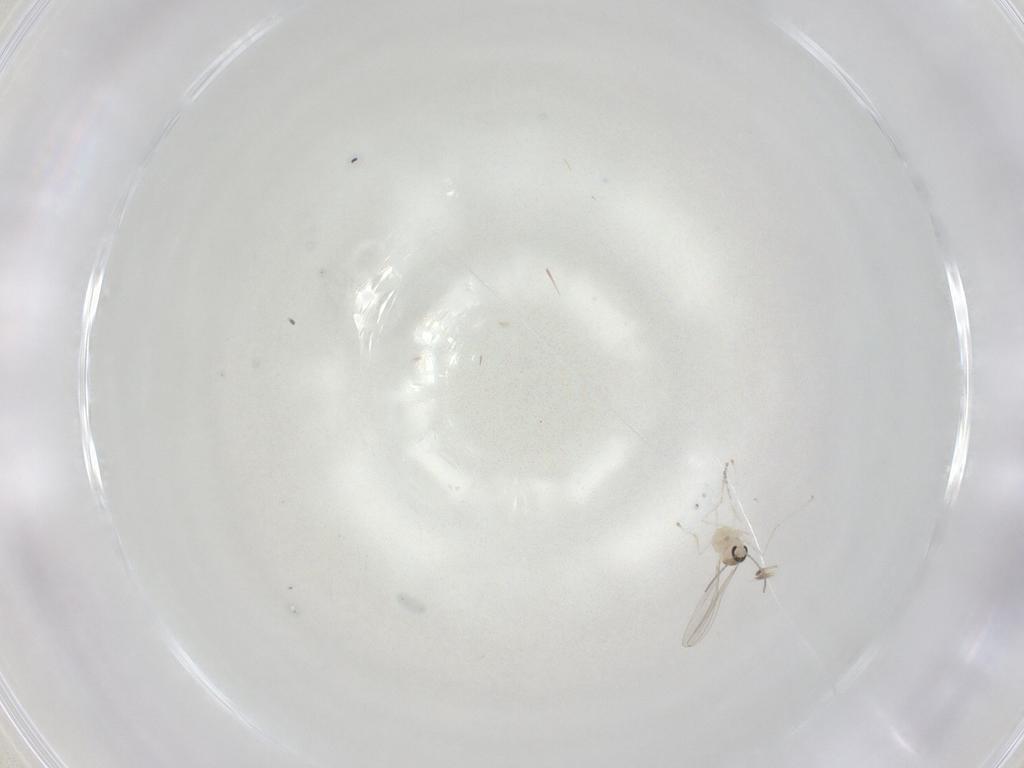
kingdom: Animalia
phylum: Arthropoda
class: Insecta
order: Diptera
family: Cecidomyiidae
